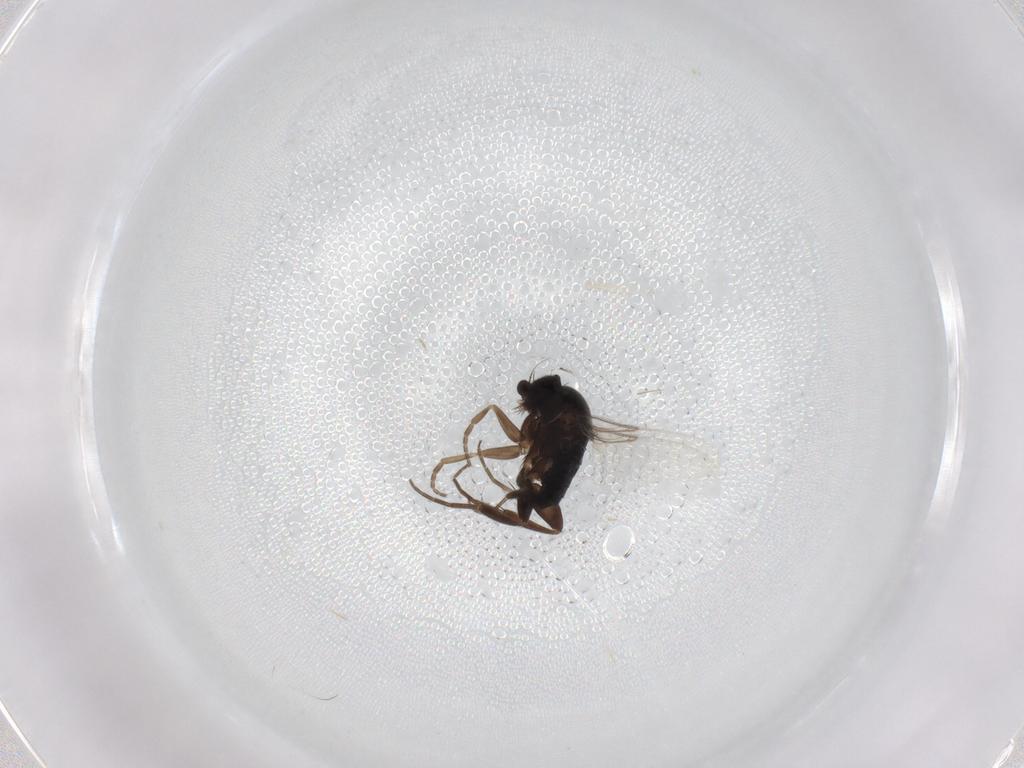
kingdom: Animalia
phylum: Arthropoda
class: Insecta
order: Diptera
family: Phoridae
